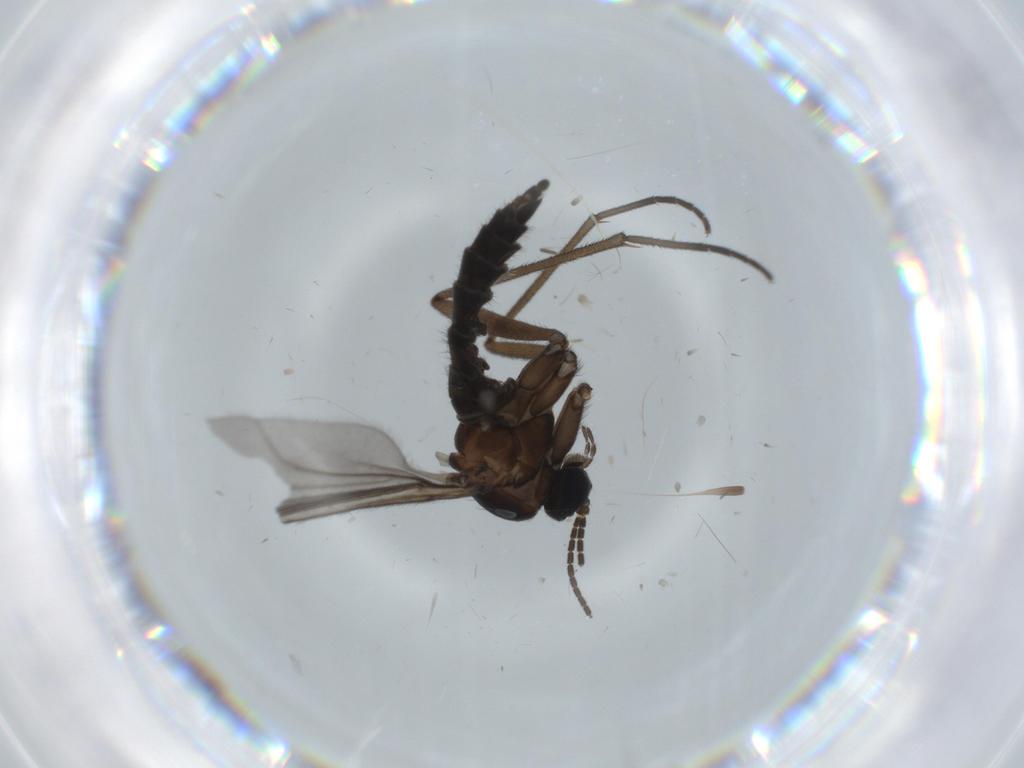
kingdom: Animalia
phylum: Arthropoda
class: Insecta
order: Diptera
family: Sciaridae
